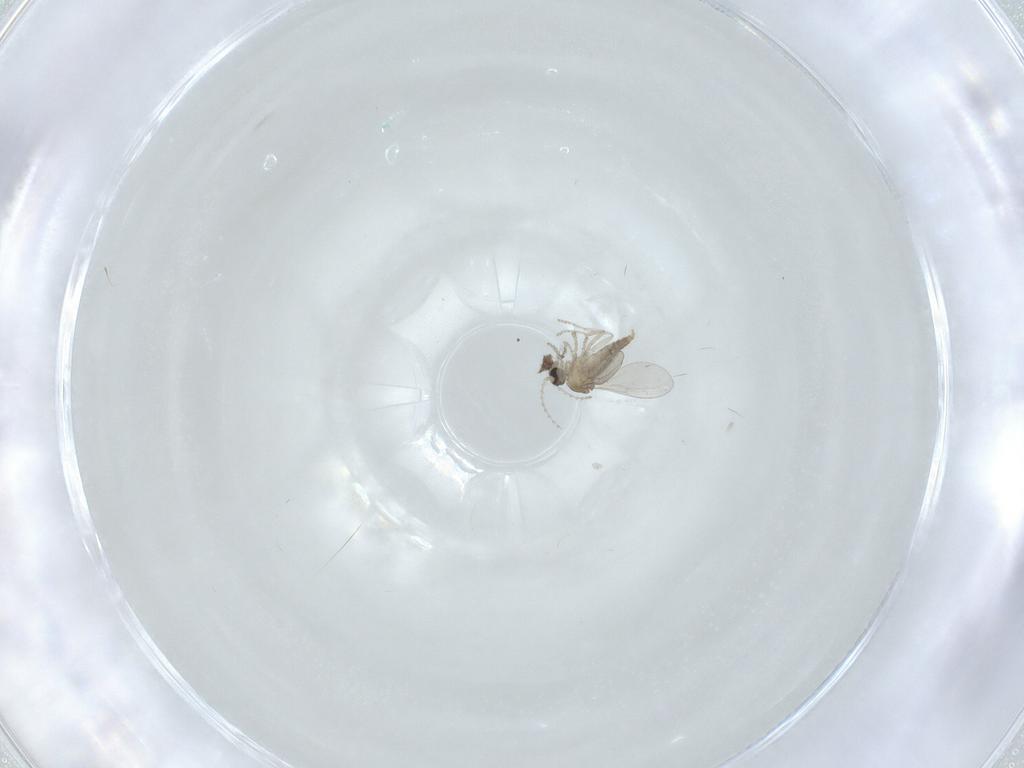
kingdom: Animalia
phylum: Arthropoda
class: Insecta
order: Diptera
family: Cecidomyiidae
